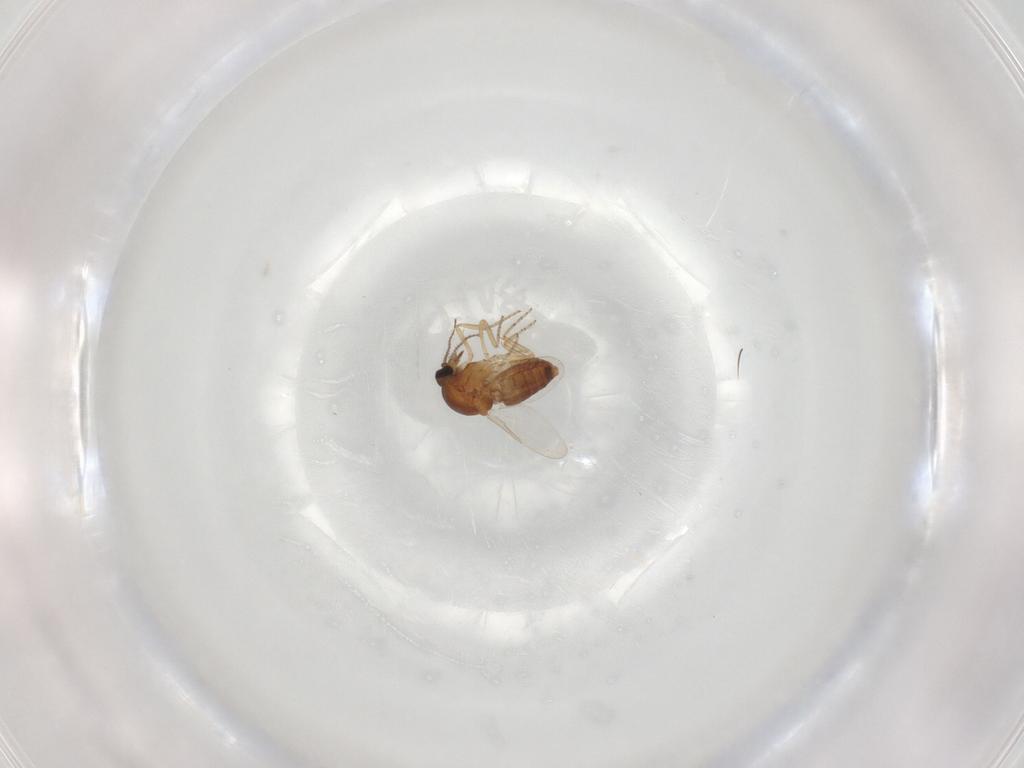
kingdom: Animalia
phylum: Arthropoda
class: Insecta
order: Diptera
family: Ceratopogonidae
